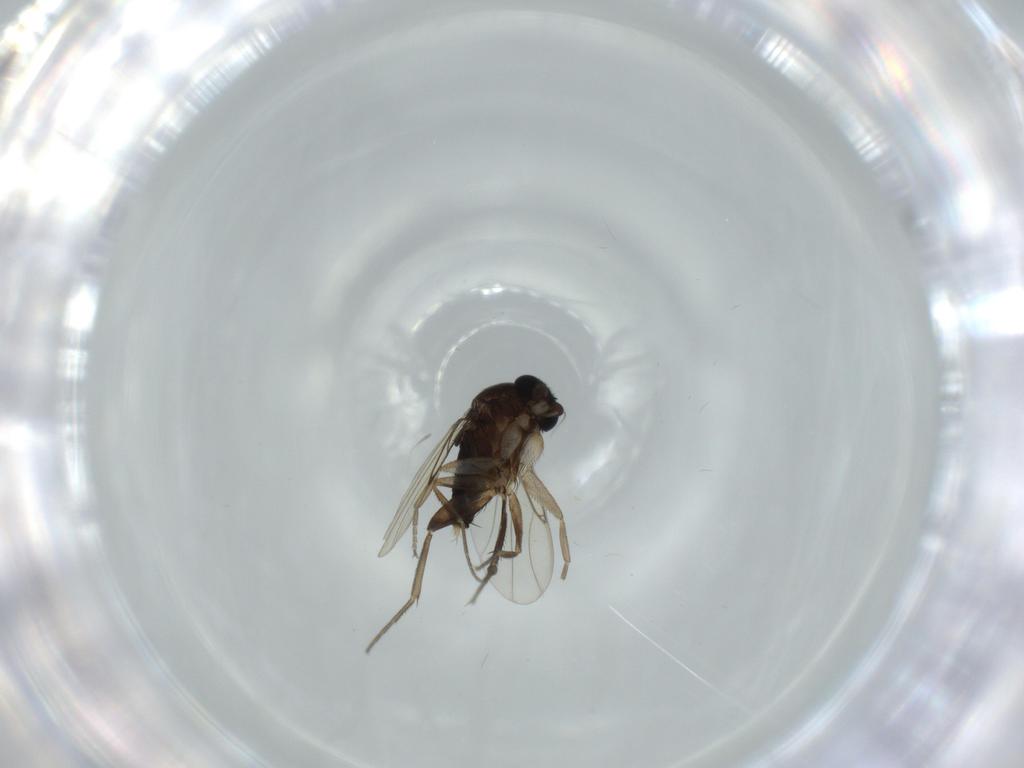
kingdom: Animalia
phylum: Arthropoda
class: Insecta
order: Diptera
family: Phoridae
